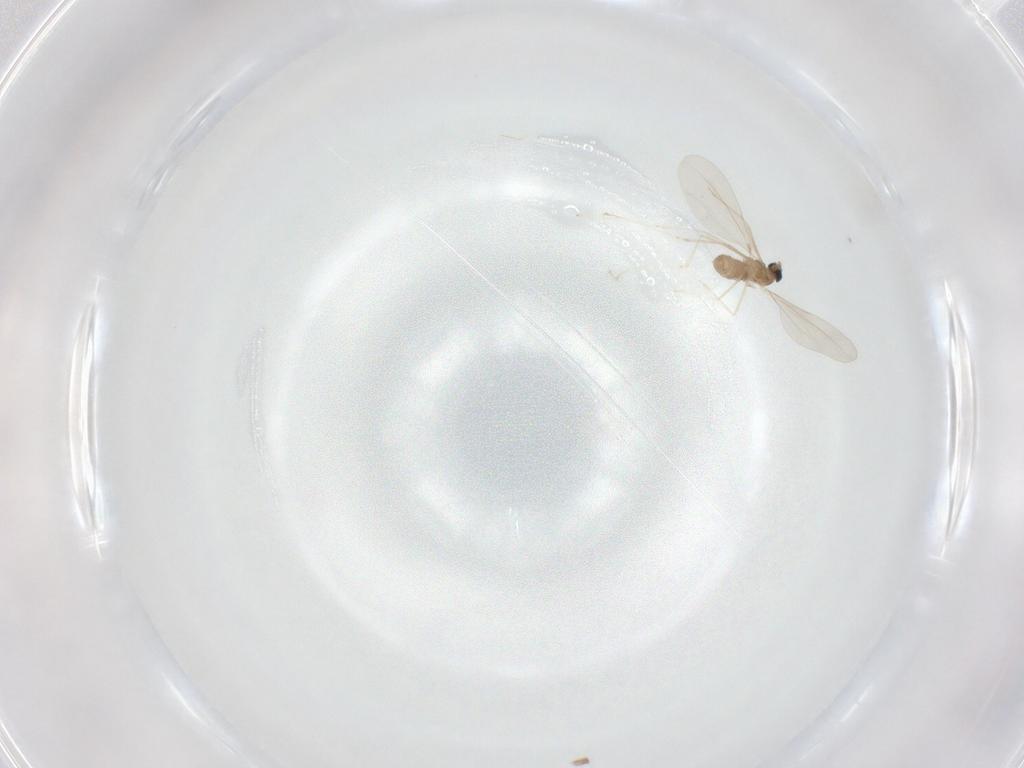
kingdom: Animalia
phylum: Arthropoda
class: Insecta
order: Diptera
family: Cecidomyiidae
